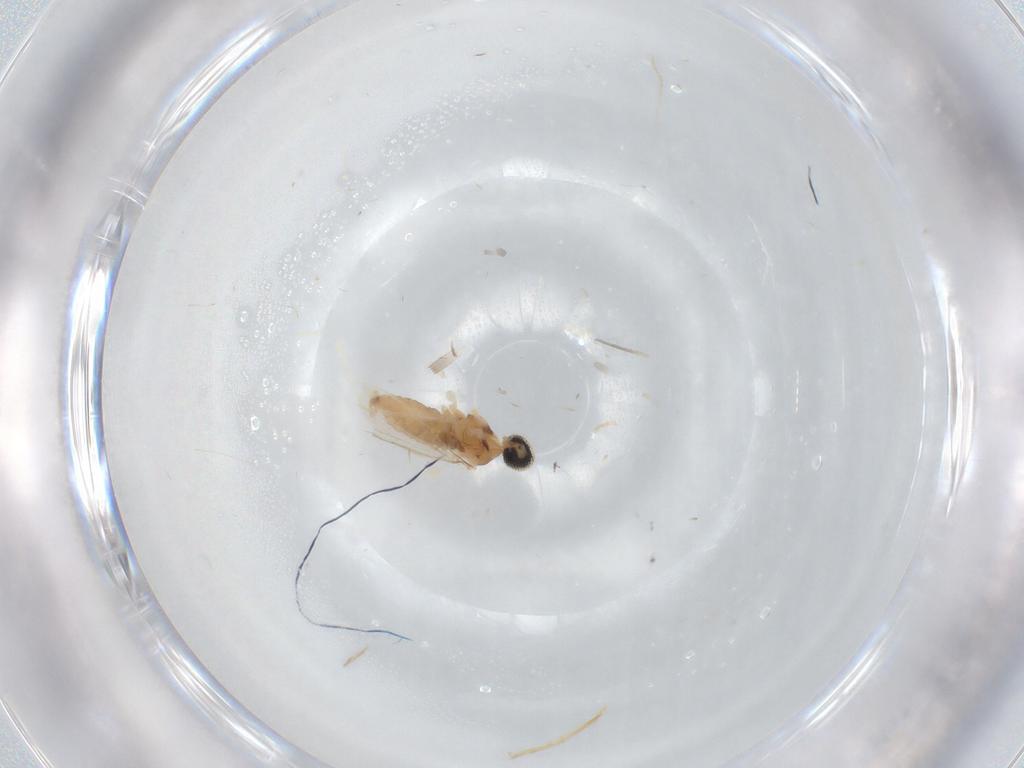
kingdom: Animalia
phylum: Arthropoda
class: Insecta
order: Diptera
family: Cecidomyiidae
